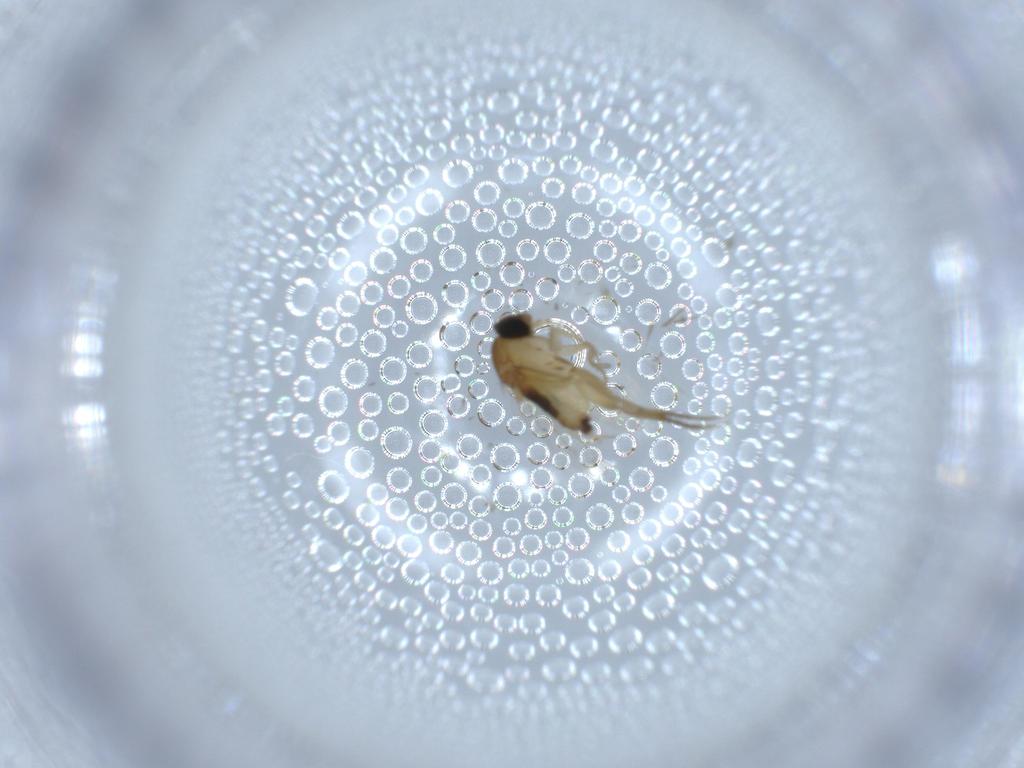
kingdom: Animalia
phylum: Arthropoda
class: Insecta
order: Diptera
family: Phoridae
